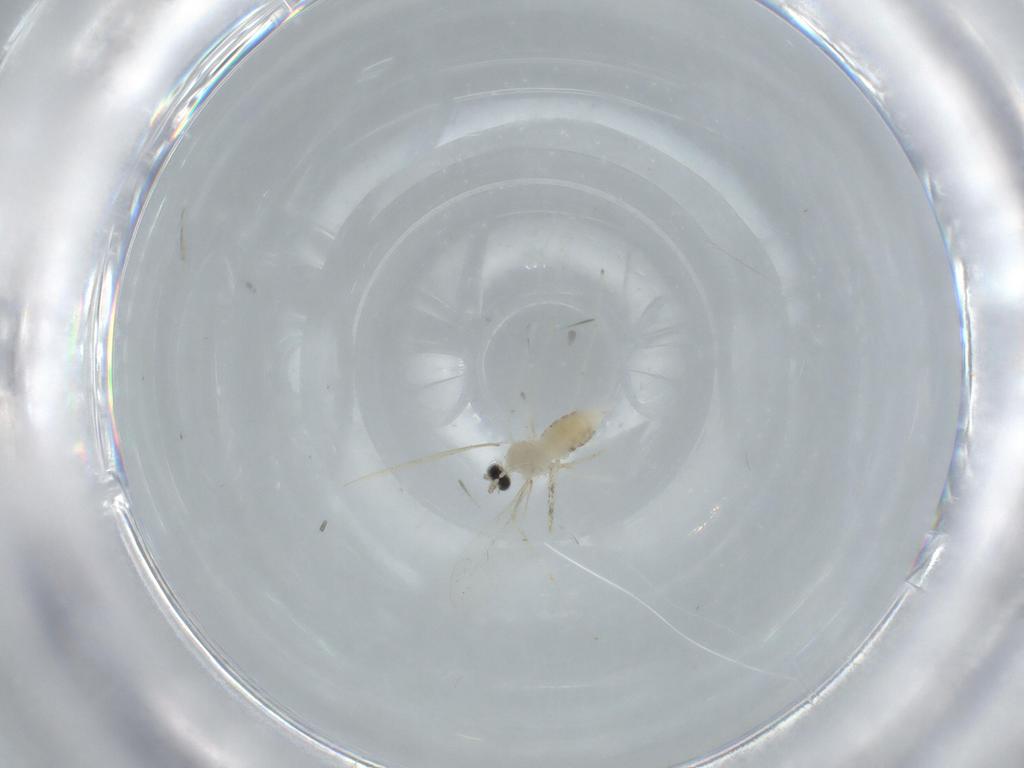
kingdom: Animalia
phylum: Arthropoda
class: Insecta
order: Diptera
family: Cecidomyiidae
